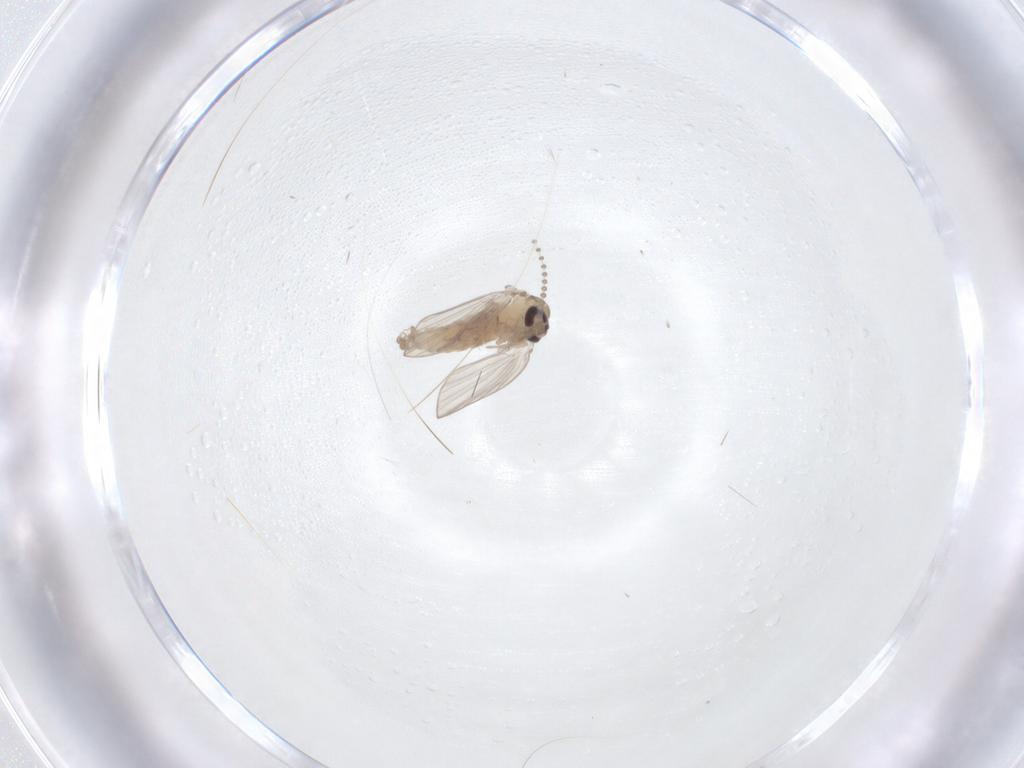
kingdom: Animalia
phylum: Arthropoda
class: Insecta
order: Diptera
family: Psychodidae
